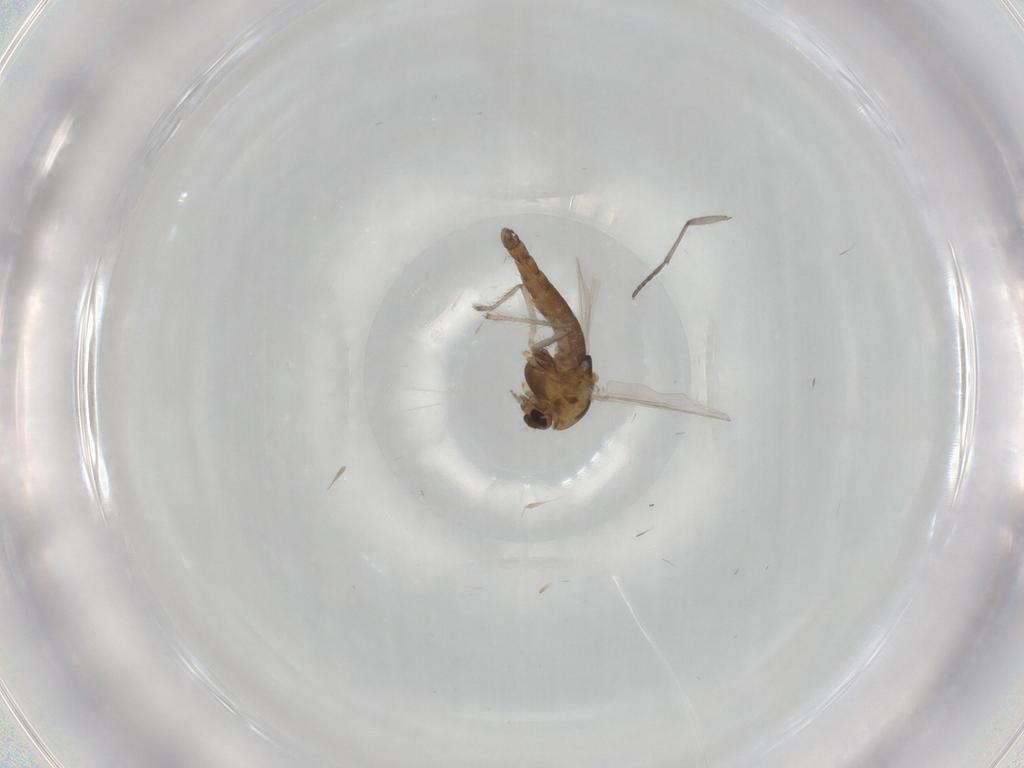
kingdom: Animalia
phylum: Arthropoda
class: Insecta
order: Diptera
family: Chironomidae
